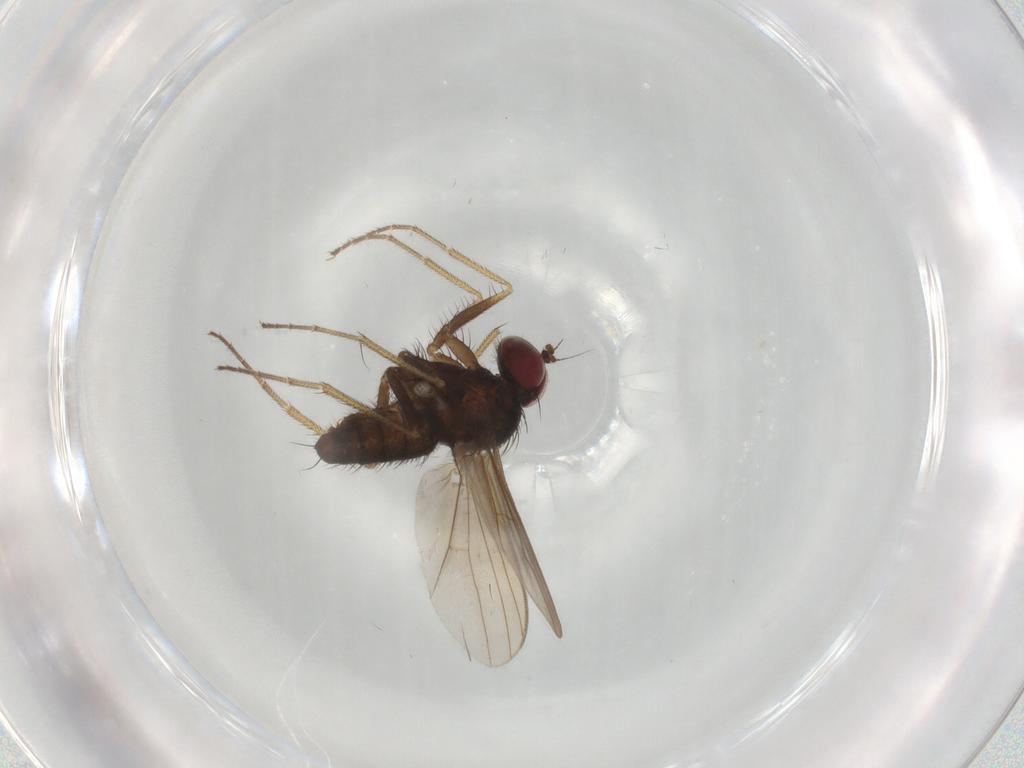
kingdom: Animalia
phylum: Arthropoda
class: Insecta
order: Diptera
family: Dolichopodidae
